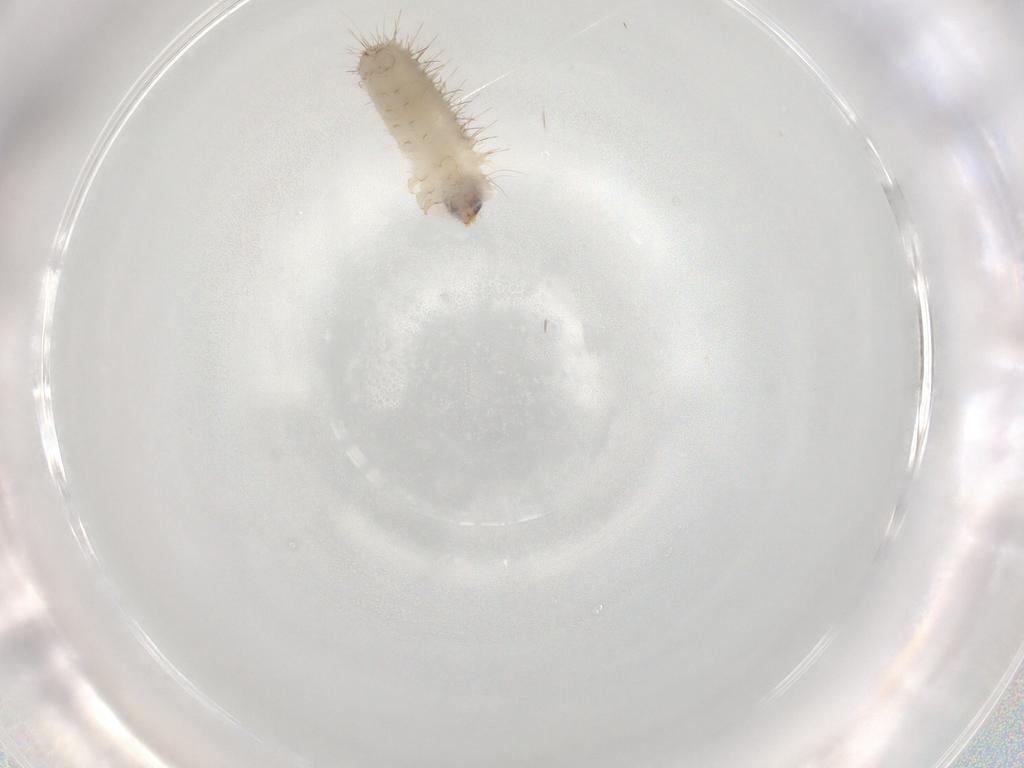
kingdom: Animalia
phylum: Arthropoda
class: Insecta
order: Lepidoptera
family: Zygaenidae
